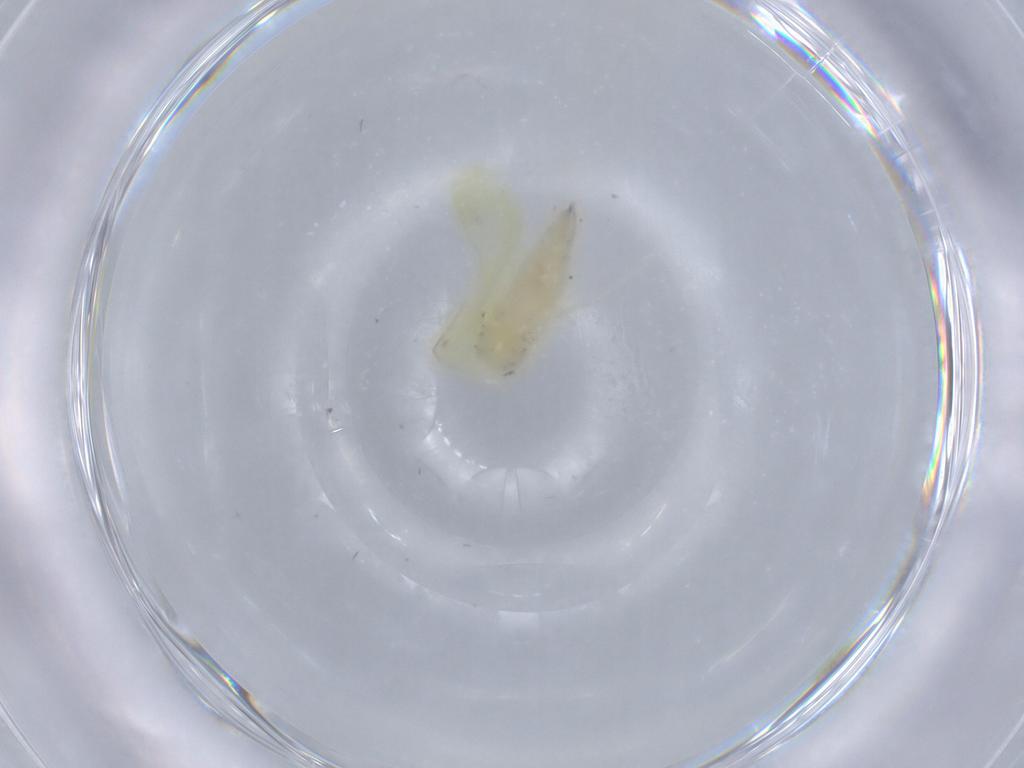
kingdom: Animalia
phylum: Arthropoda
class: Insecta
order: Hemiptera
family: Cicadellidae
